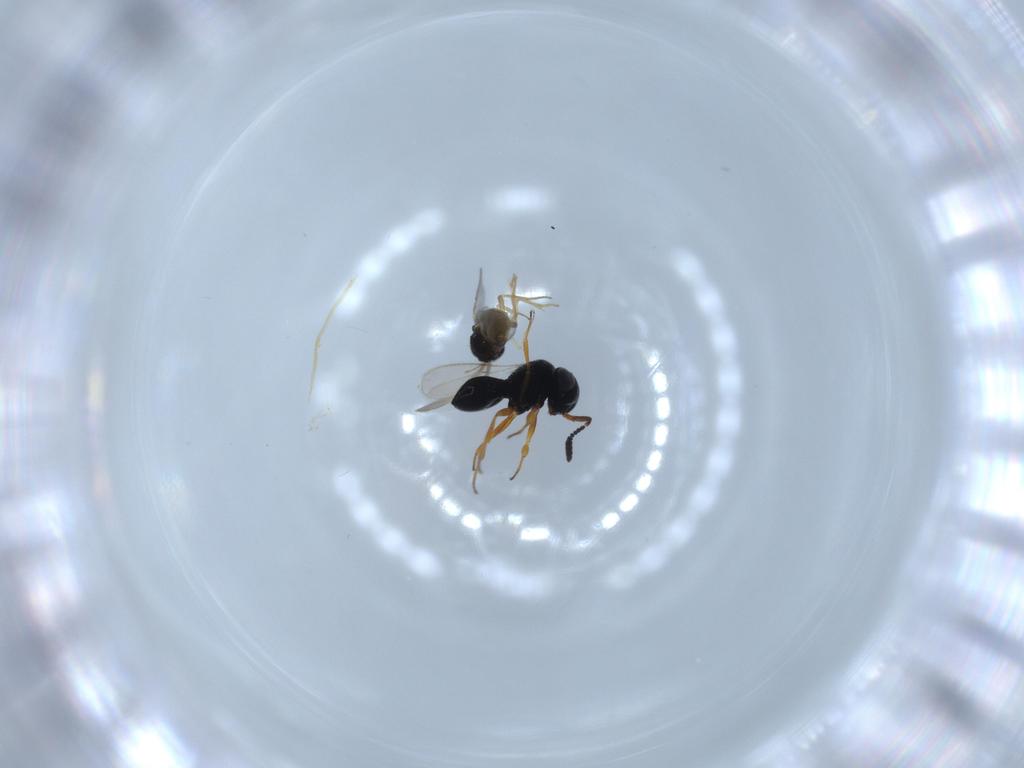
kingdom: Animalia
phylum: Arthropoda
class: Insecta
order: Hymenoptera
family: Scelionidae
